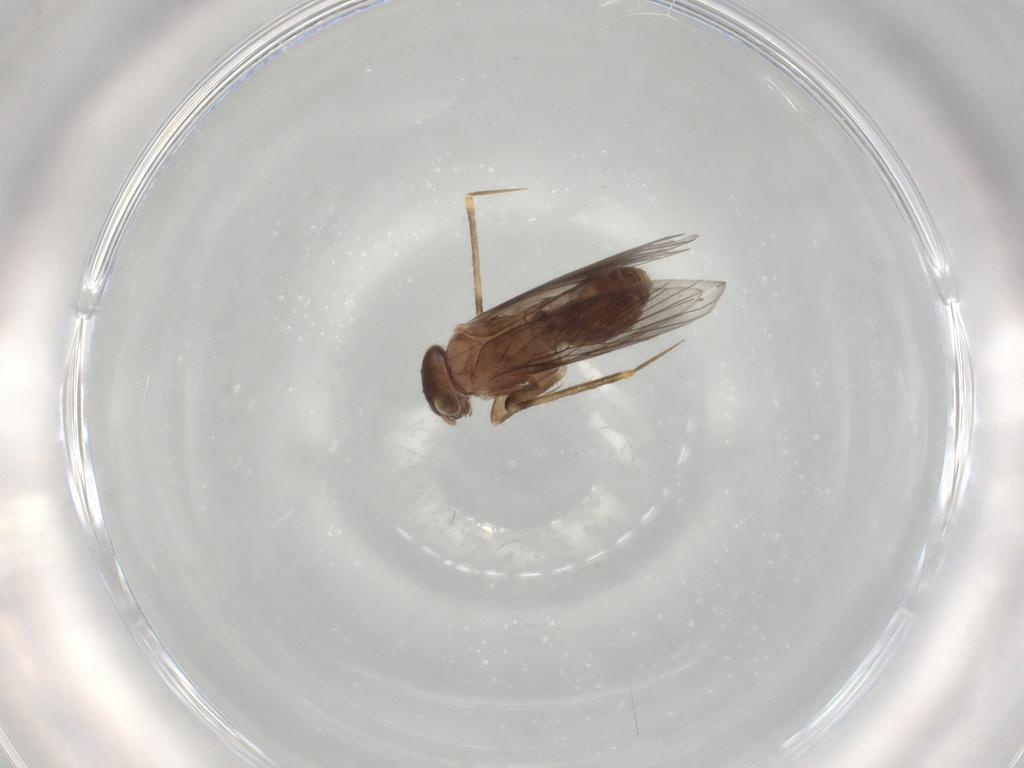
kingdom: Animalia
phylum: Arthropoda
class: Insecta
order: Psocodea
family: Lepidopsocidae
